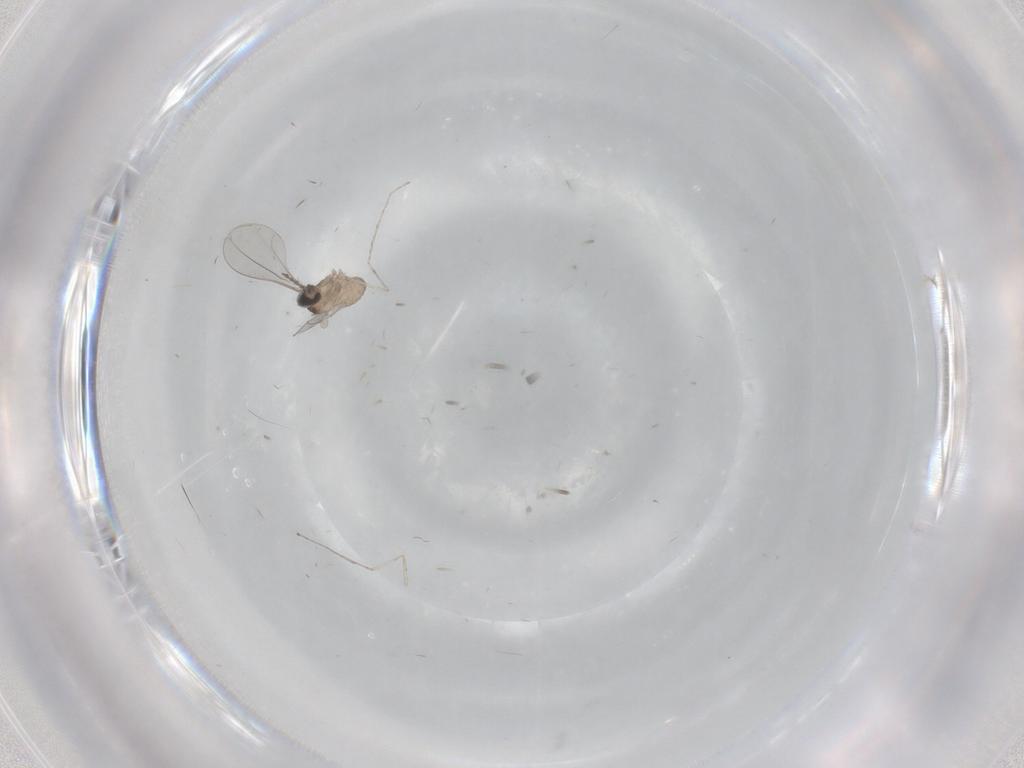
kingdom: Animalia
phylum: Arthropoda
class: Insecta
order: Diptera
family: Cecidomyiidae
